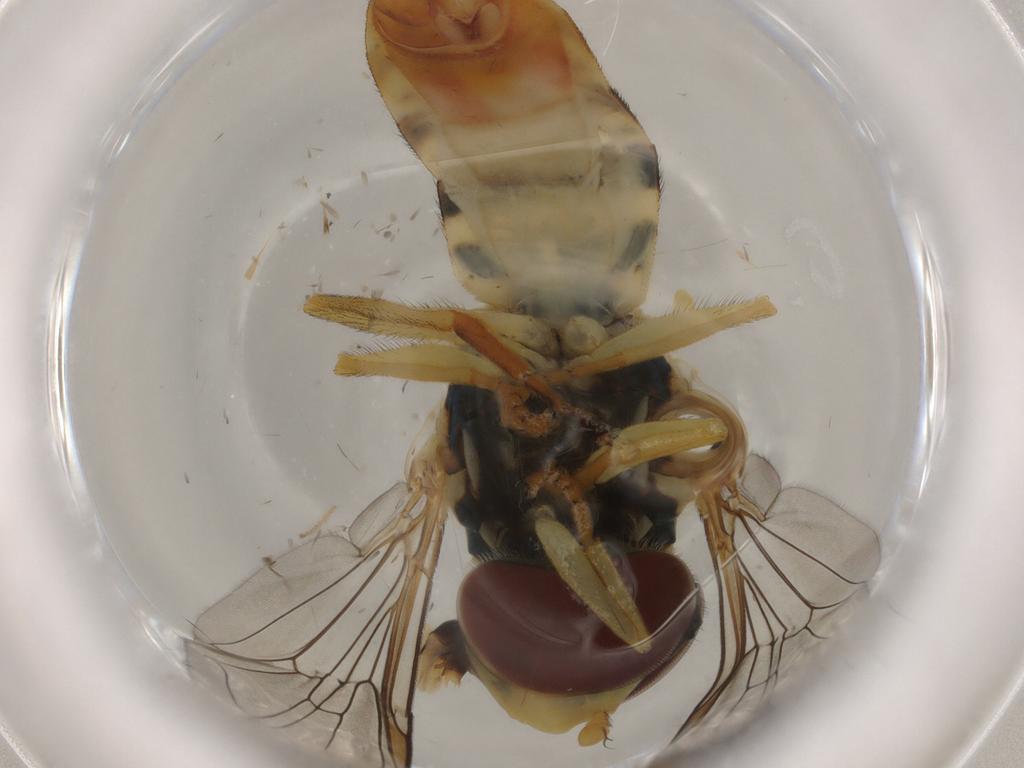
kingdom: Animalia
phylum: Arthropoda
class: Insecta
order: Diptera
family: Syrphidae
